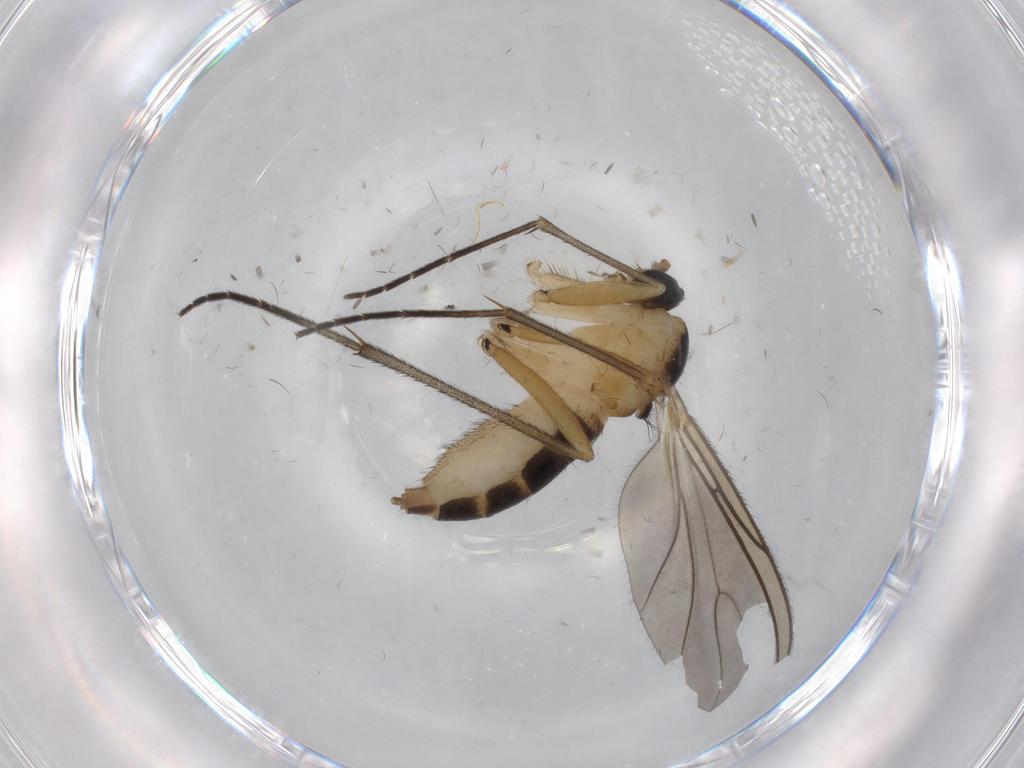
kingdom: Animalia
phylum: Arthropoda
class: Insecta
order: Diptera
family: Sciaridae
